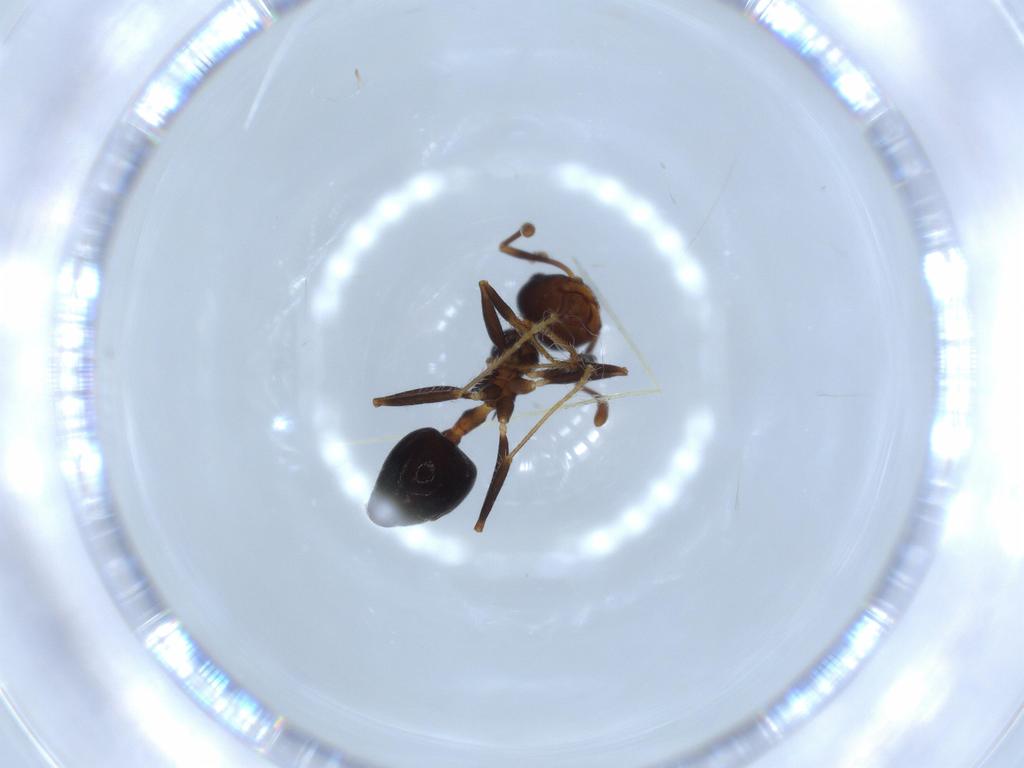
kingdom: Animalia
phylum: Arthropoda
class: Insecta
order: Hymenoptera
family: Formicidae
